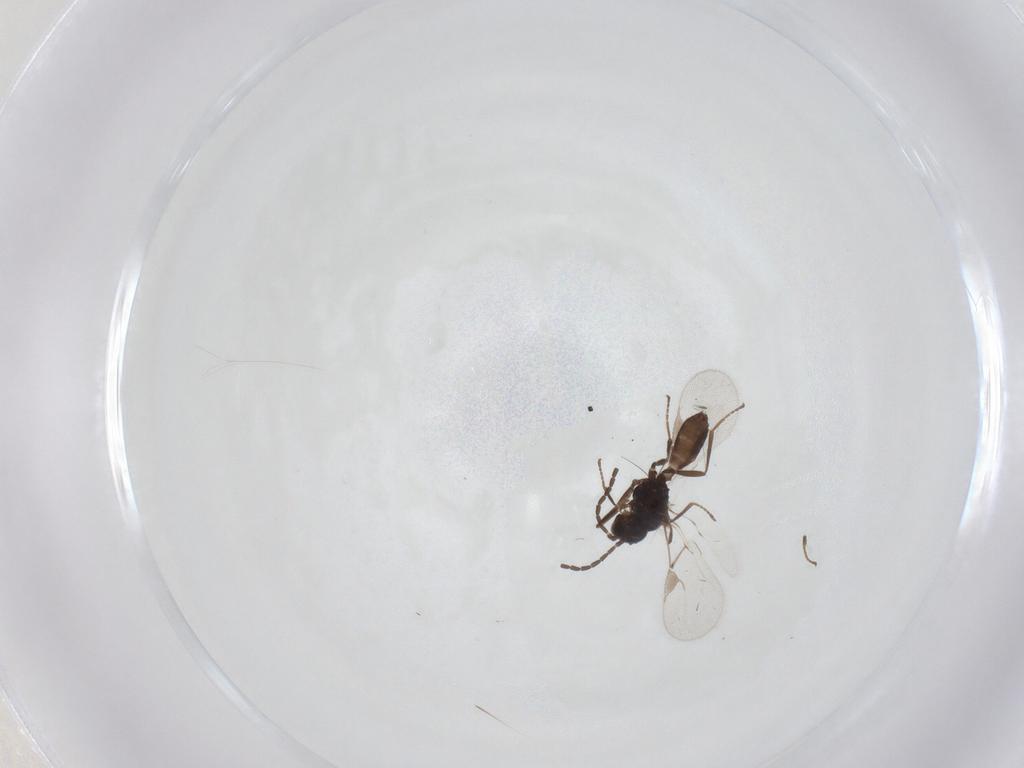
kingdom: Animalia
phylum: Arthropoda
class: Insecta
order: Hymenoptera
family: Braconidae
